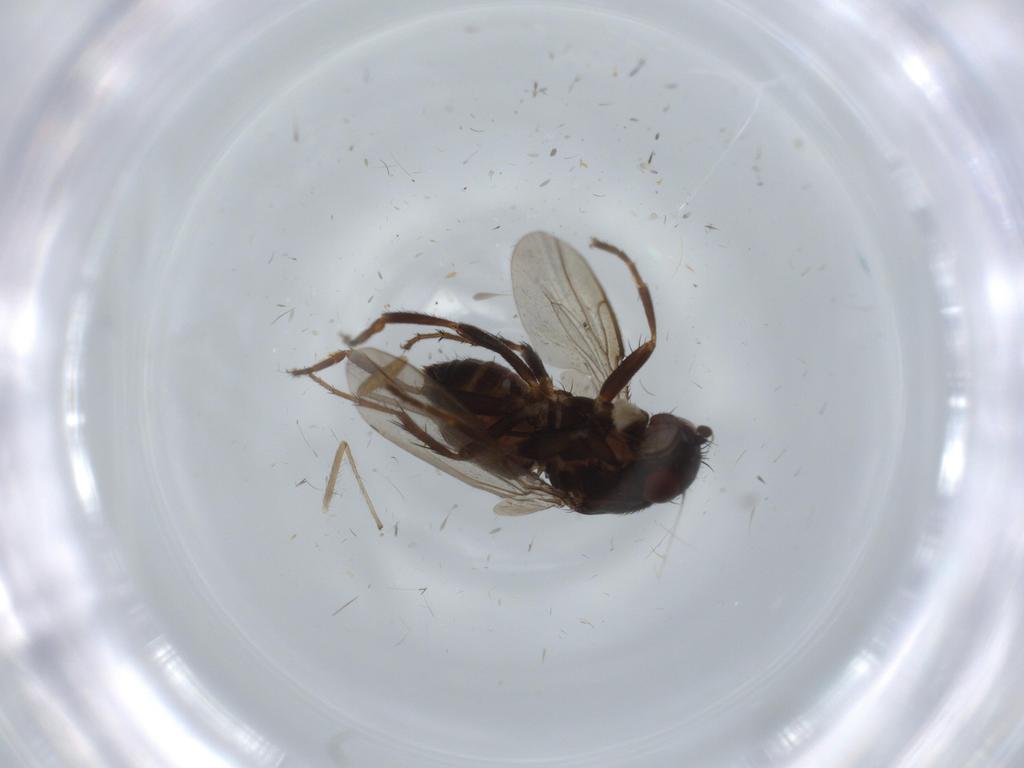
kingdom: Animalia
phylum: Arthropoda
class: Insecta
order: Diptera
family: Sphaeroceridae
